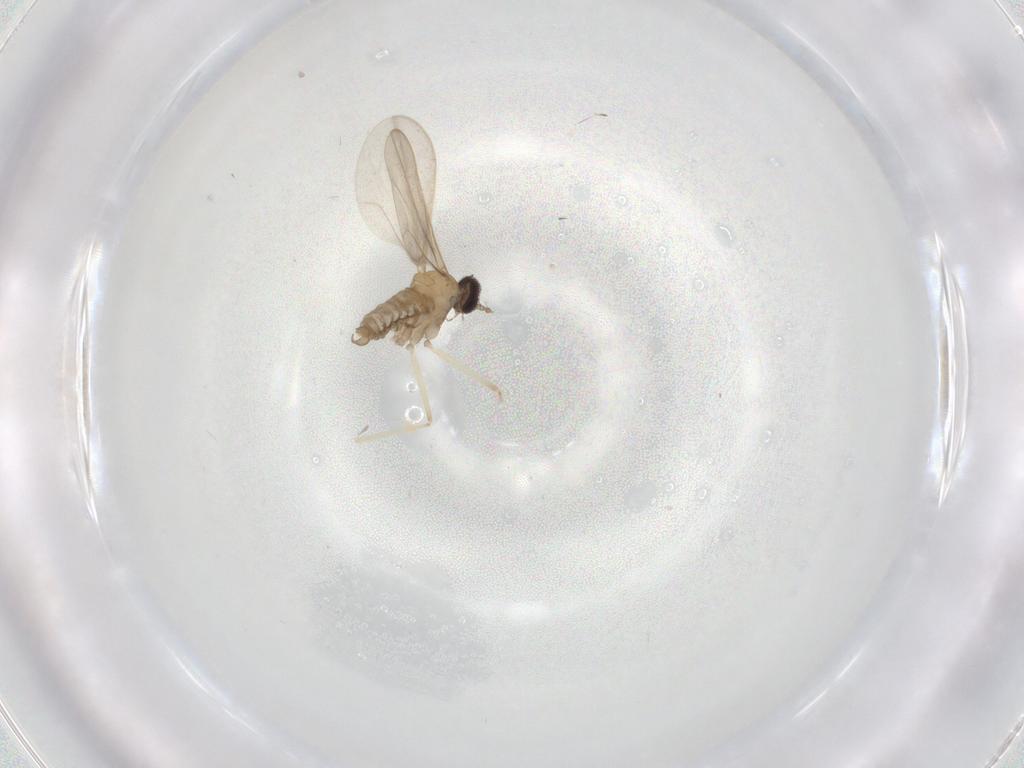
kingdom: Animalia
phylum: Arthropoda
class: Insecta
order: Diptera
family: Cecidomyiidae
